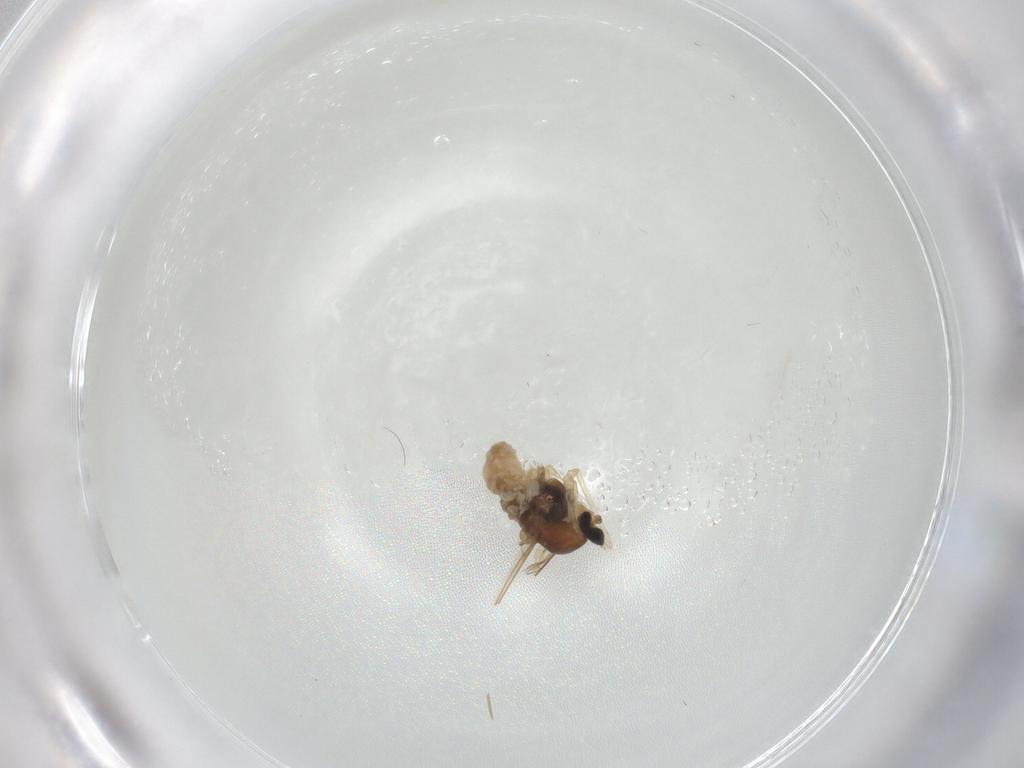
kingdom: Animalia
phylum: Arthropoda
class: Insecta
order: Diptera
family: Cecidomyiidae
